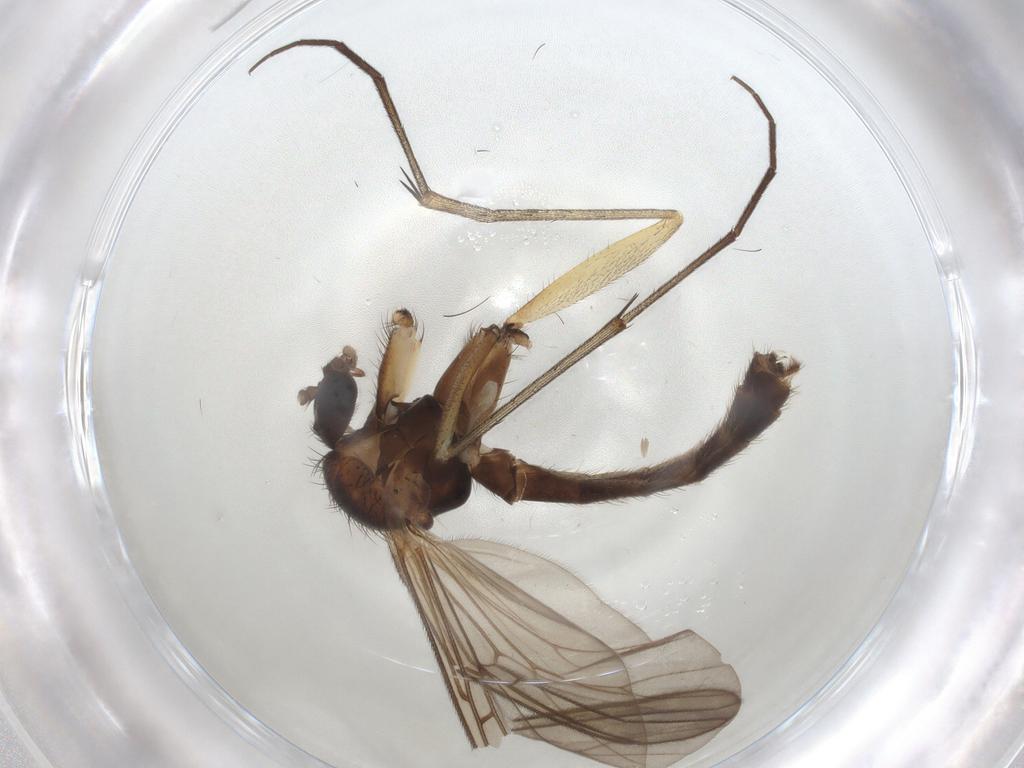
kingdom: Animalia
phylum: Arthropoda
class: Insecta
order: Diptera
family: Mycetophilidae
